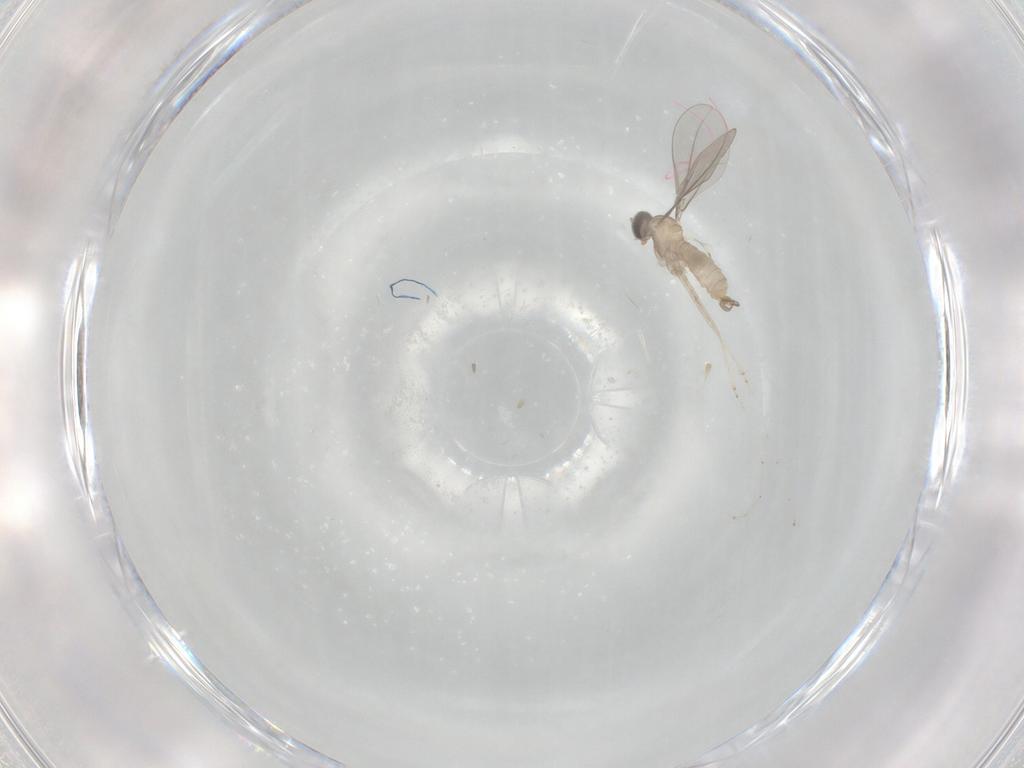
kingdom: Animalia
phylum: Arthropoda
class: Insecta
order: Diptera
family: Cecidomyiidae
